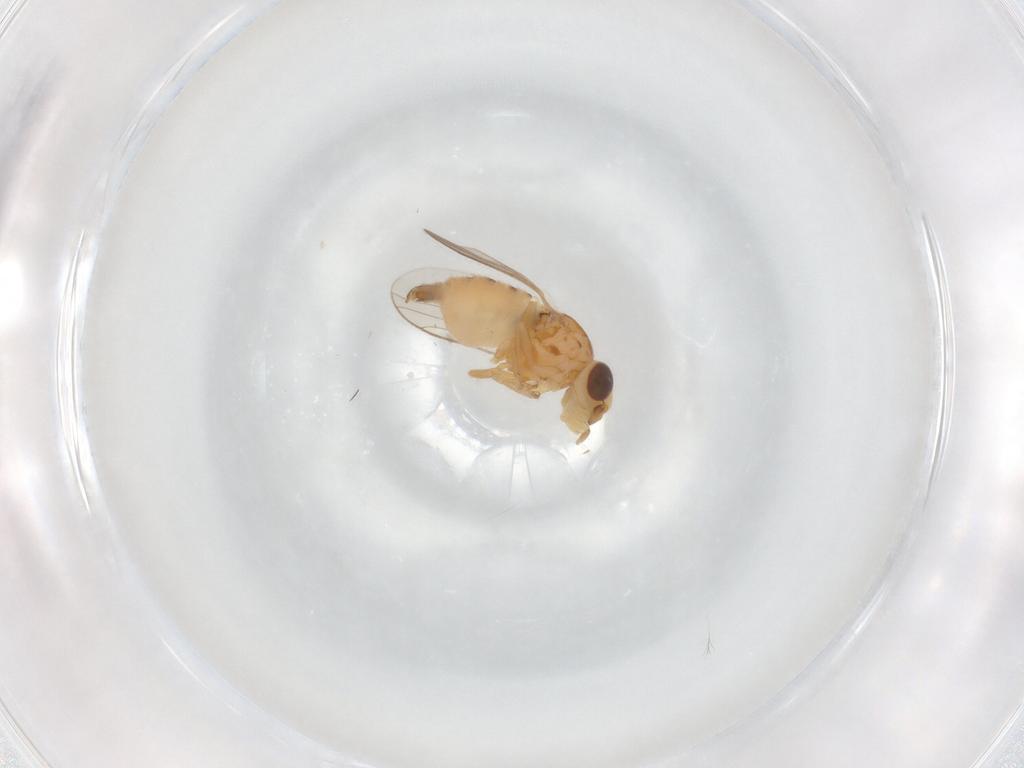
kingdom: Animalia
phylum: Arthropoda
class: Insecta
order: Diptera
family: Chloropidae
